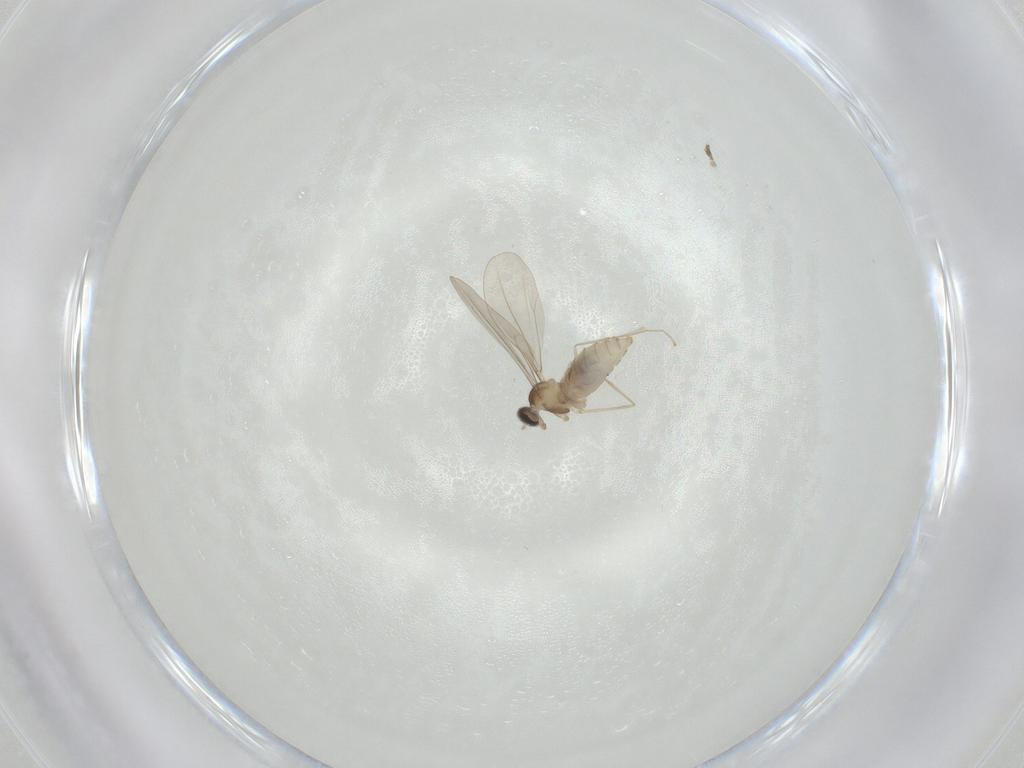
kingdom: Animalia
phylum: Arthropoda
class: Insecta
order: Diptera
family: Chironomidae
